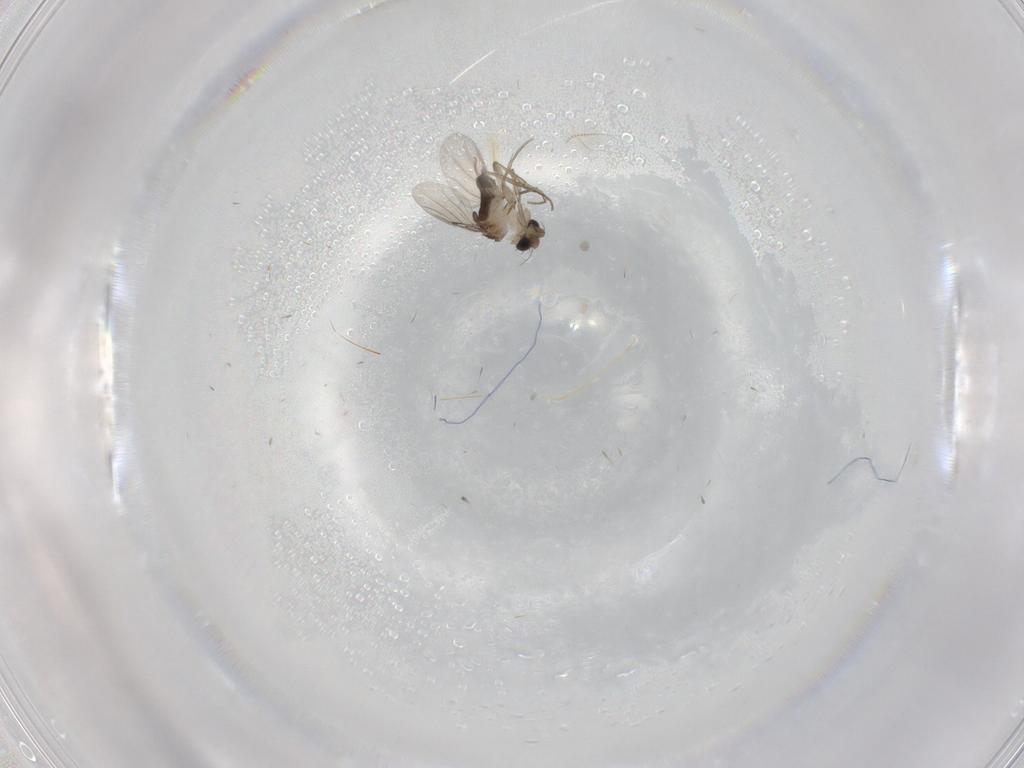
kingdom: Animalia
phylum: Arthropoda
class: Insecta
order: Diptera
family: Phoridae
